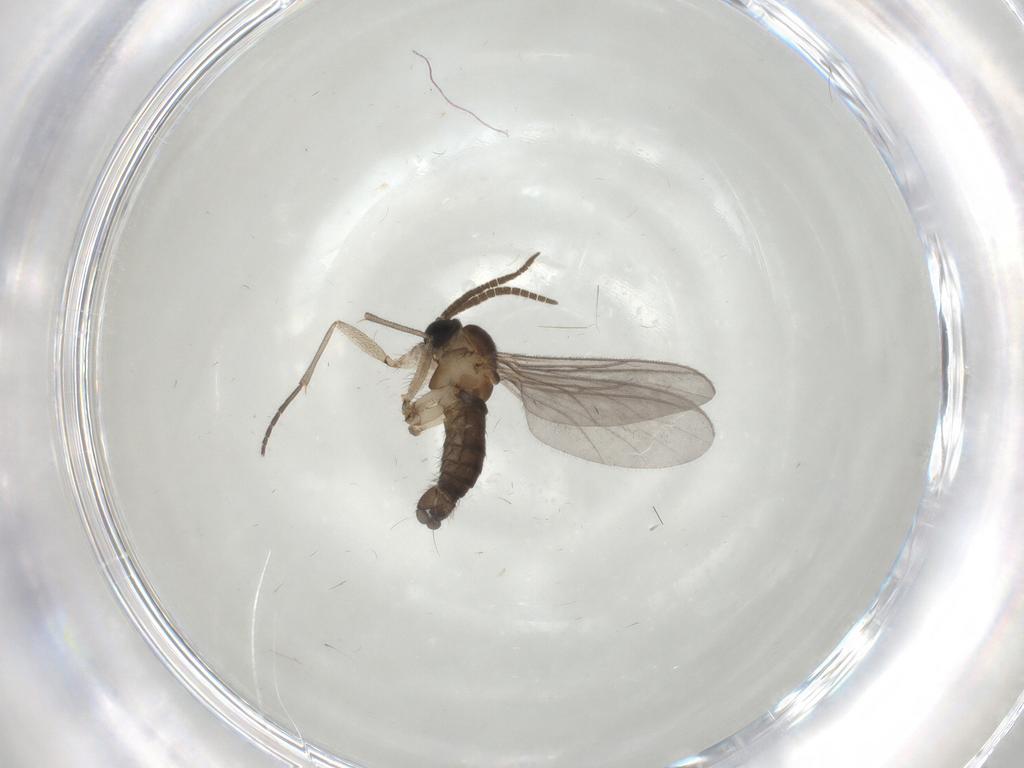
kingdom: Animalia
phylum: Arthropoda
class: Insecta
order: Diptera
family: Cecidomyiidae
